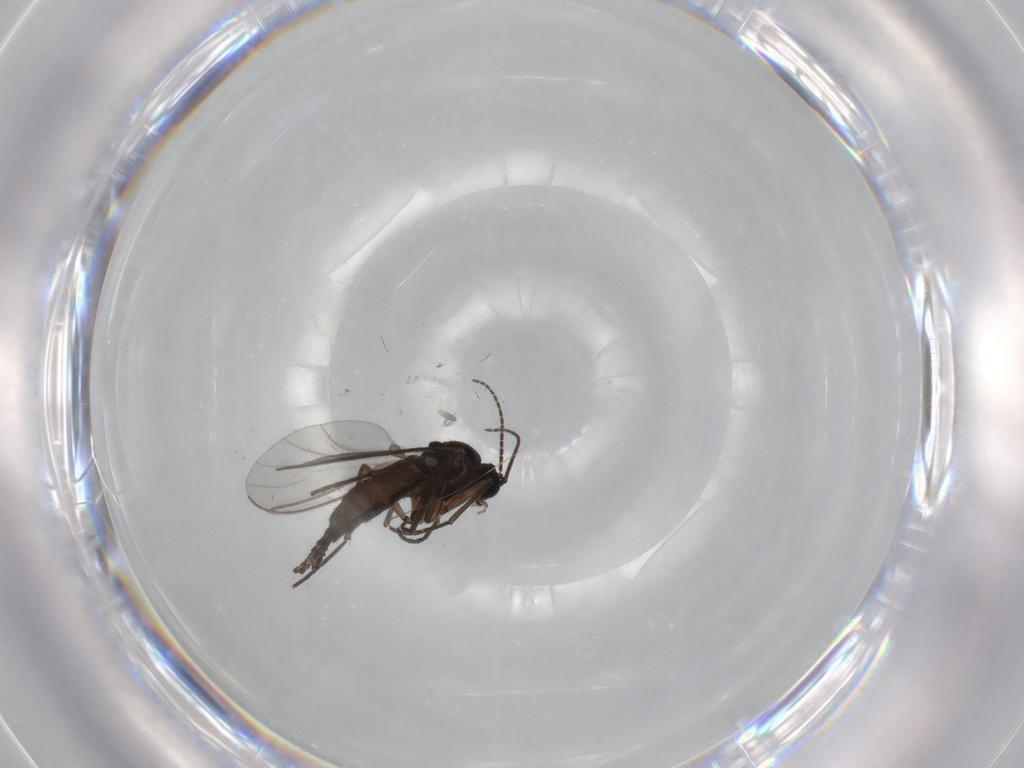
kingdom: Animalia
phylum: Arthropoda
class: Insecta
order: Diptera
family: Sciaridae
